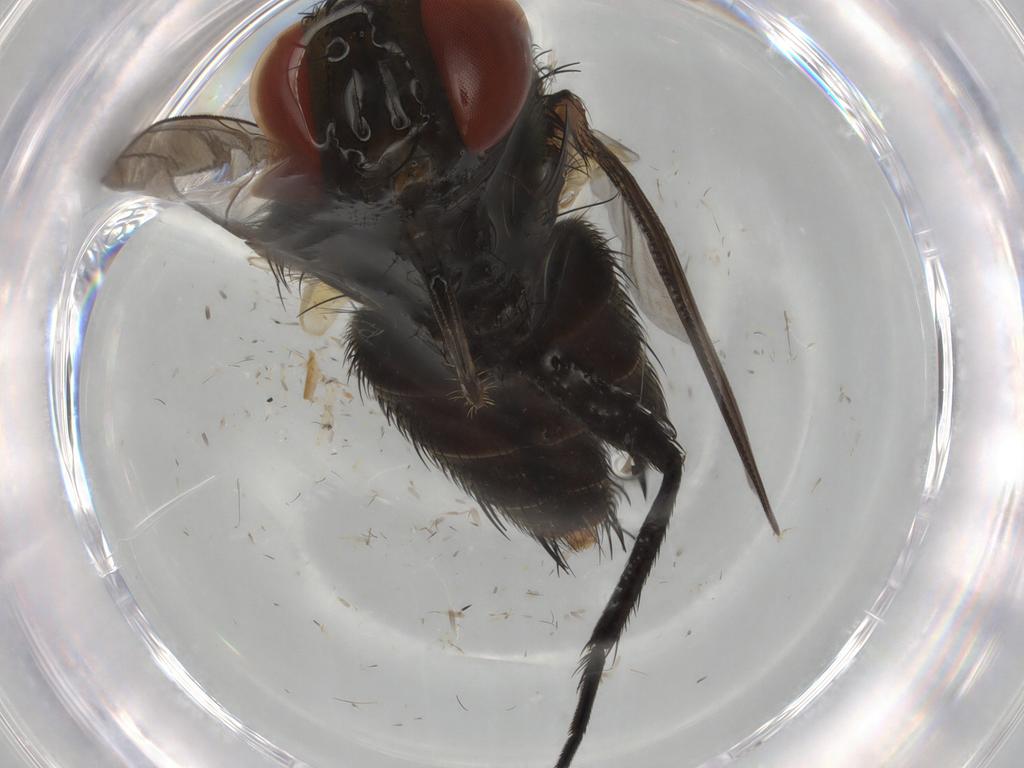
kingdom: Animalia
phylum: Arthropoda
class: Insecta
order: Diptera
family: Sarcophagidae
